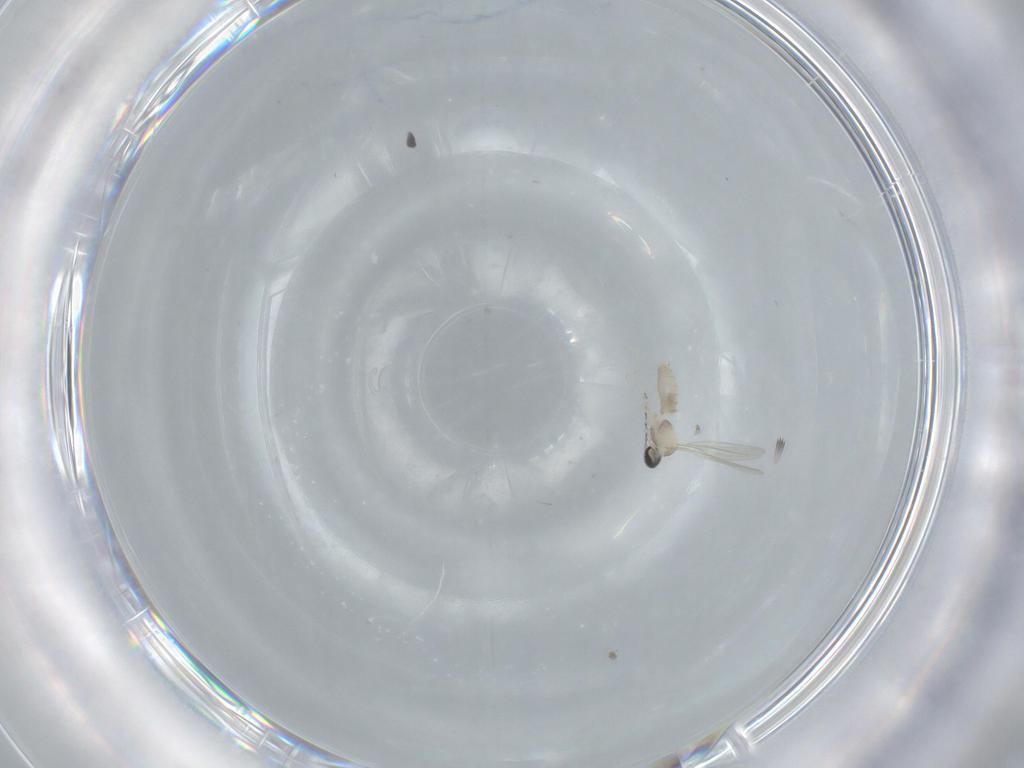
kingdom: Animalia
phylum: Arthropoda
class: Insecta
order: Diptera
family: Cecidomyiidae
